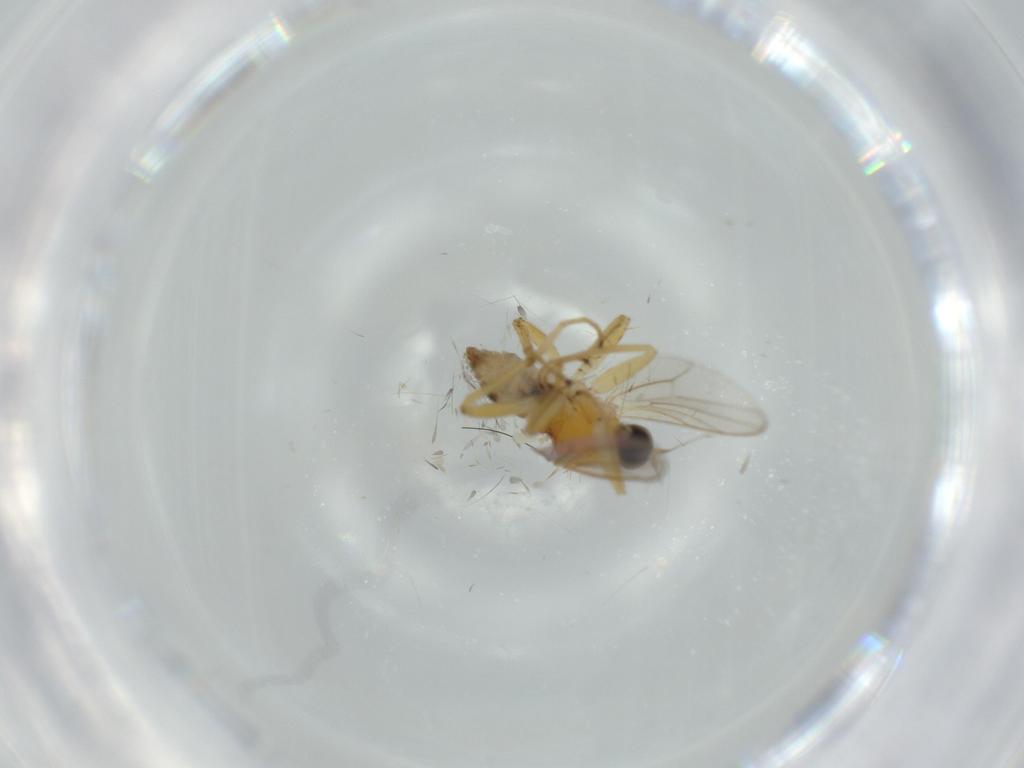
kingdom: Animalia
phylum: Arthropoda
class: Insecta
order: Diptera
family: Hybotidae
